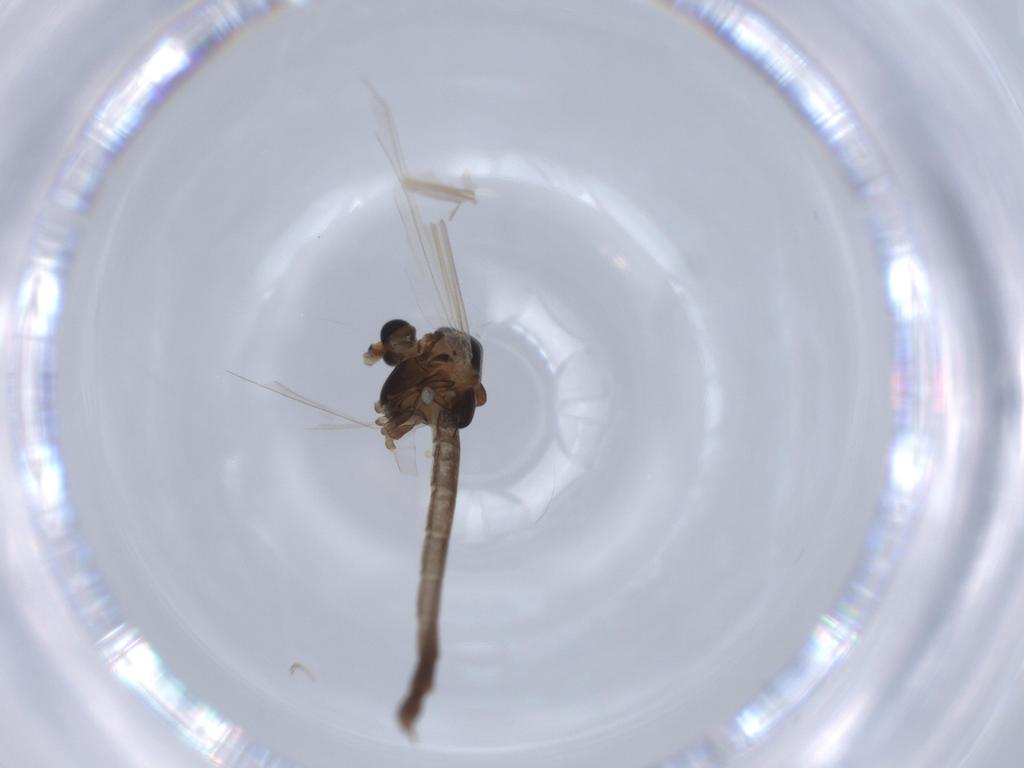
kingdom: Animalia
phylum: Arthropoda
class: Insecta
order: Diptera
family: Chironomidae
